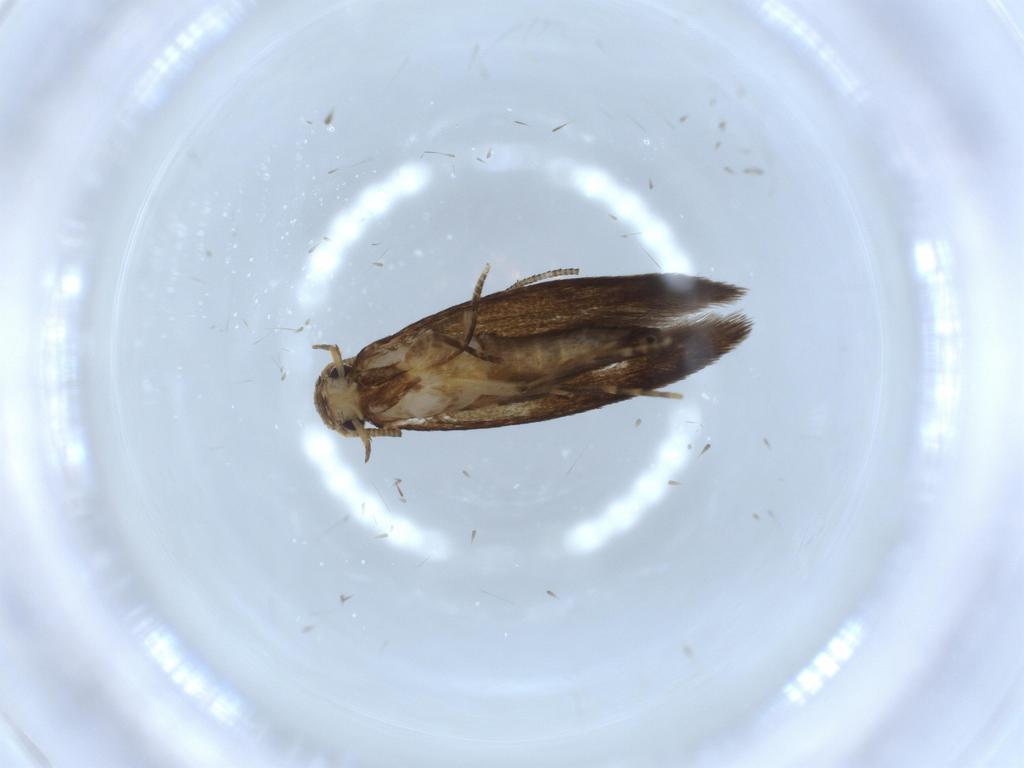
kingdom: Animalia
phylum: Arthropoda
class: Insecta
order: Lepidoptera
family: Tineidae
